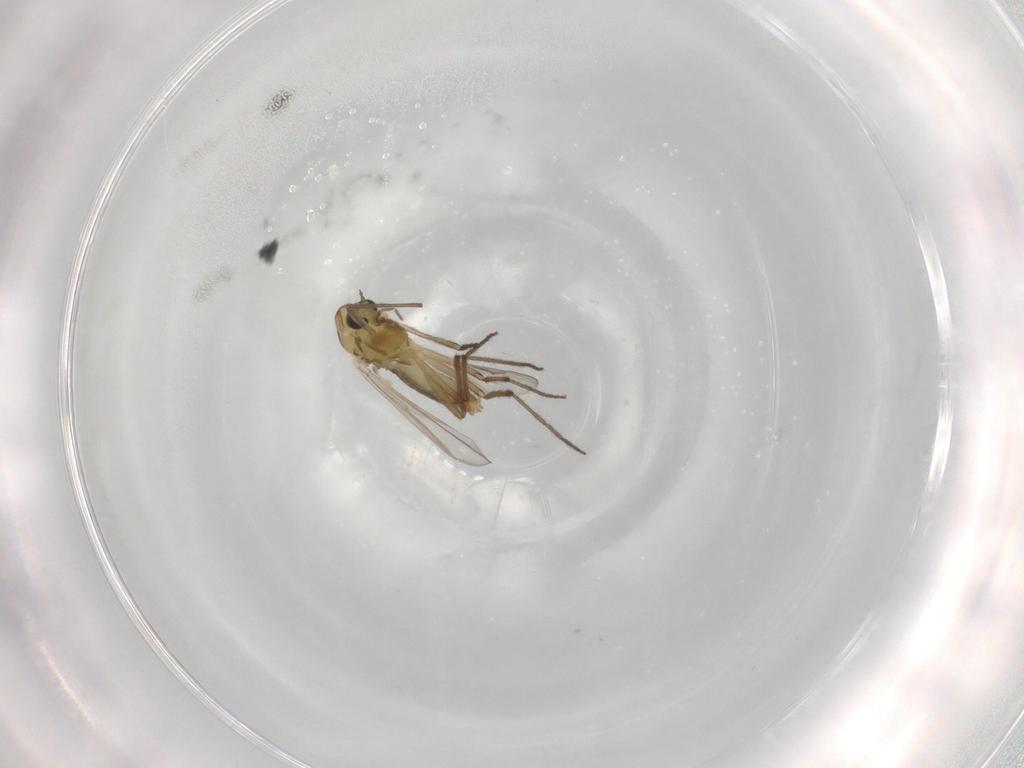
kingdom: Animalia
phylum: Arthropoda
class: Insecta
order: Diptera
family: Chironomidae
